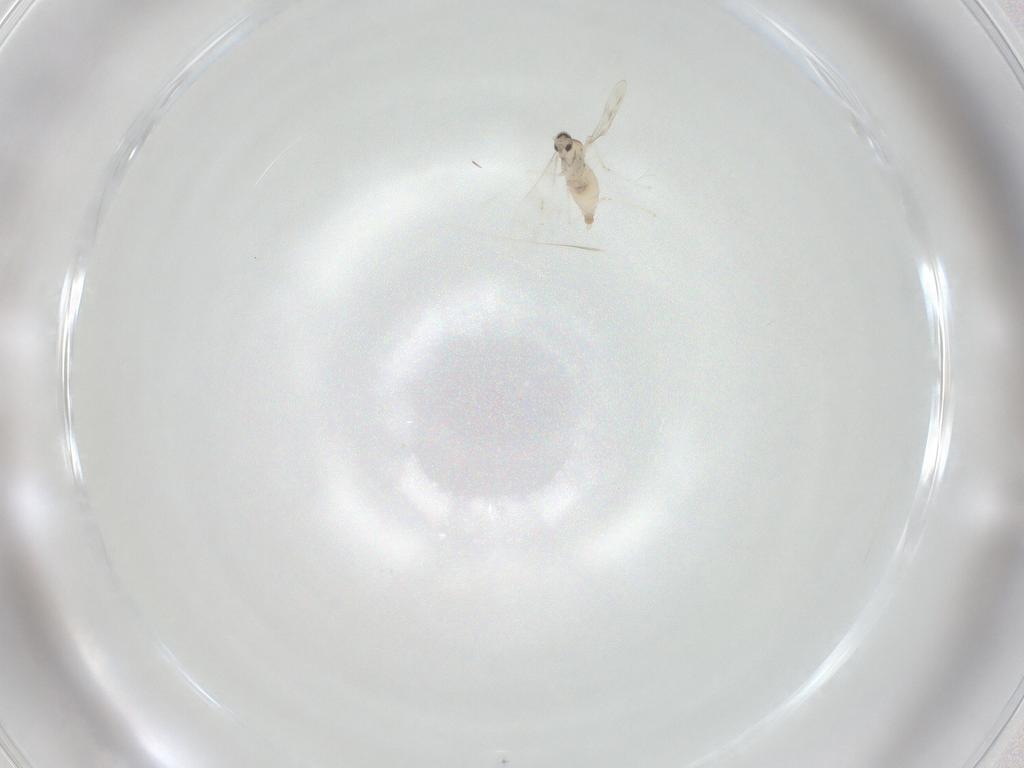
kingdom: Animalia
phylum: Arthropoda
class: Insecta
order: Diptera
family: Cecidomyiidae
